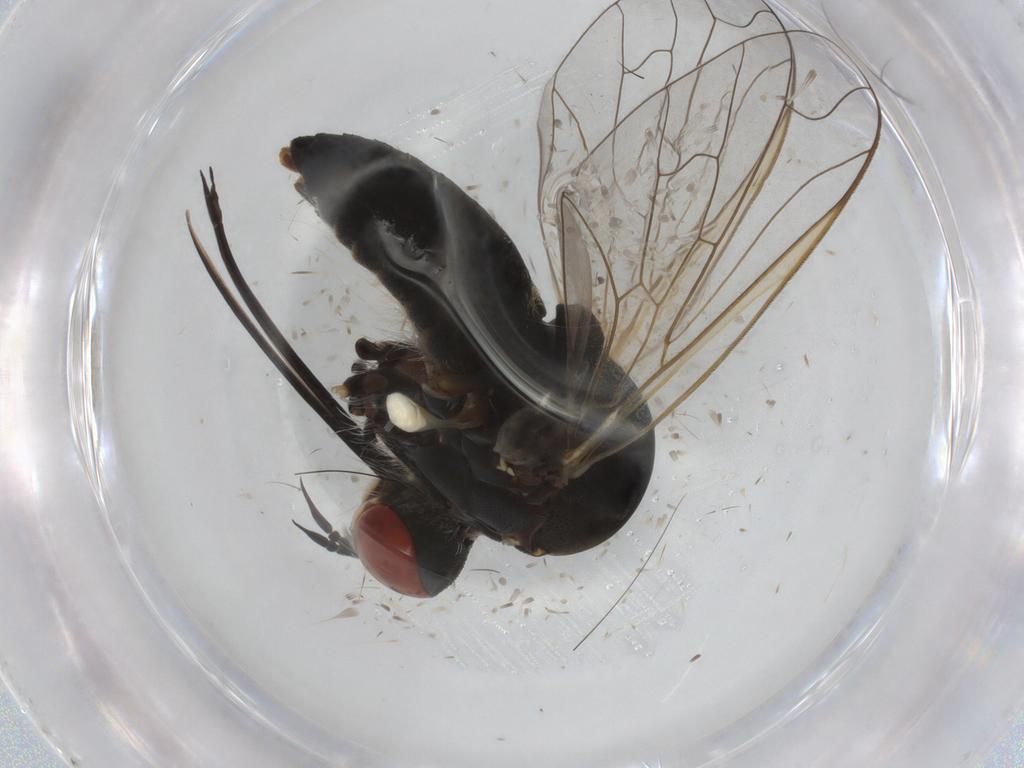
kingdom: Animalia
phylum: Arthropoda
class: Insecta
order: Diptera
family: Bombyliidae
